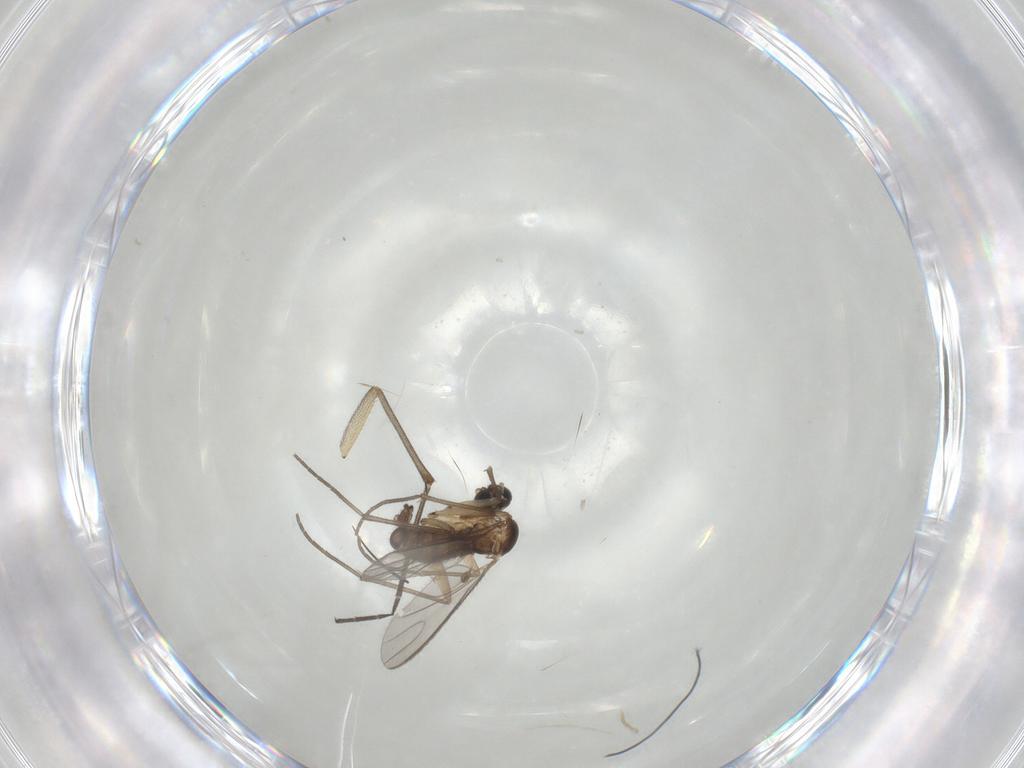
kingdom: Animalia
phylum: Arthropoda
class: Insecta
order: Diptera
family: Keroplatidae
